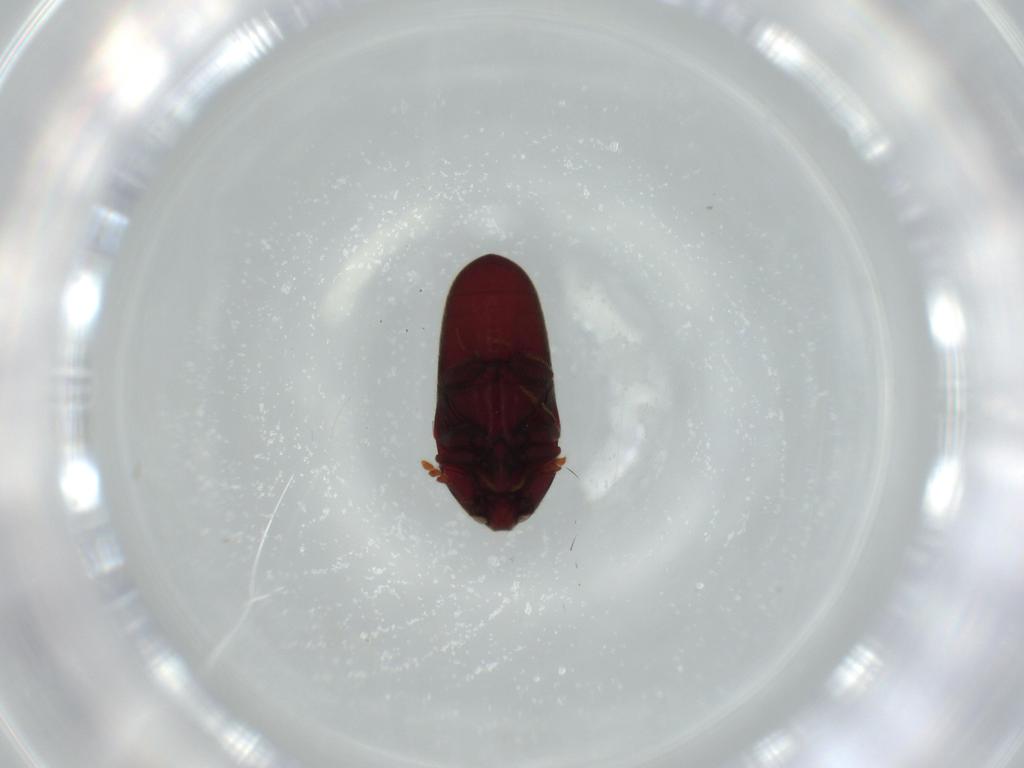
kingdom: Animalia
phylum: Arthropoda
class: Insecta
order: Coleoptera
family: Throscidae
